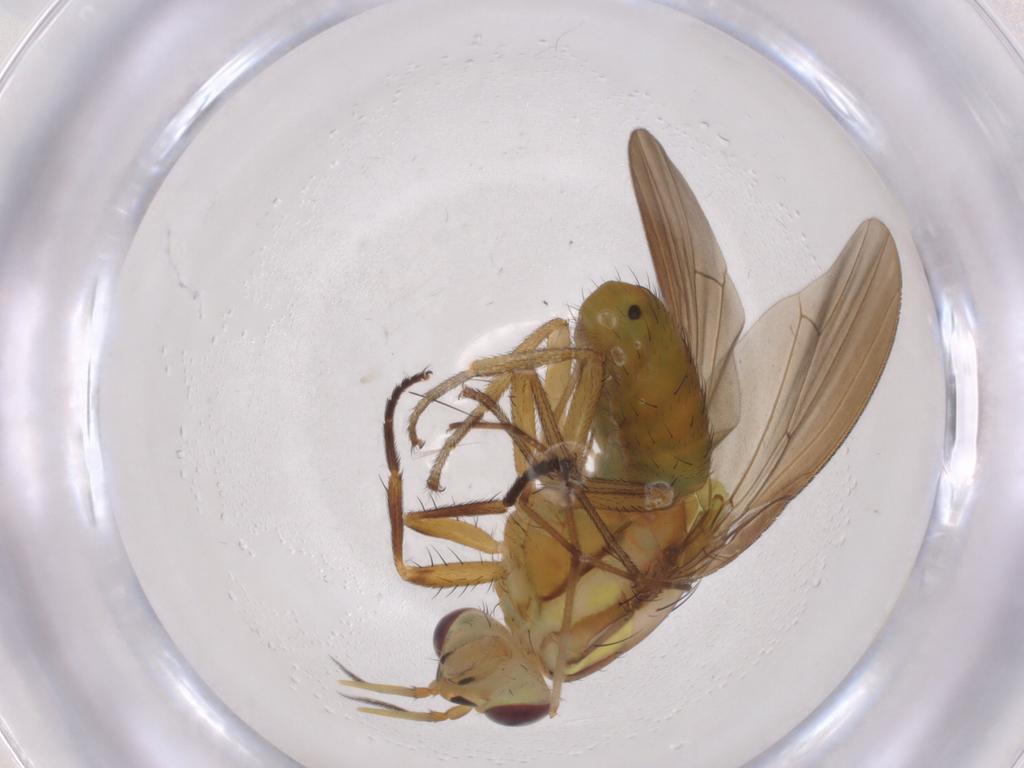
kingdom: Animalia
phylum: Arthropoda
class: Insecta
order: Diptera
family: Lauxaniidae
